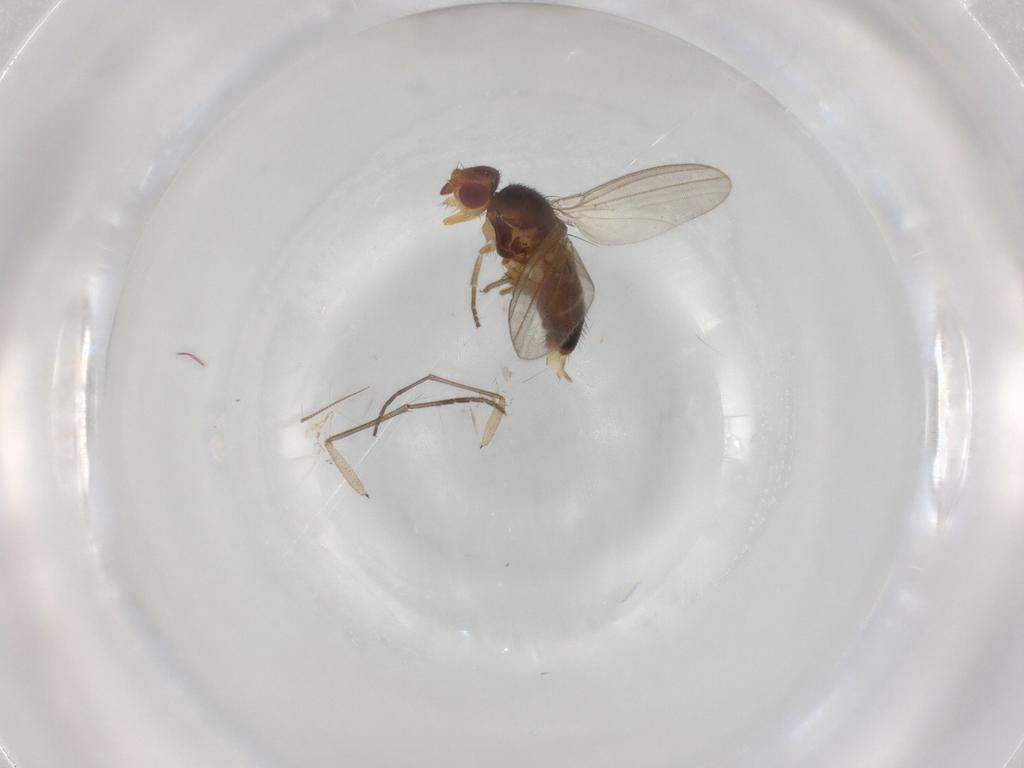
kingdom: Animalia
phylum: Arthropoda
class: Insecta
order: Diptera
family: Milichiidae
